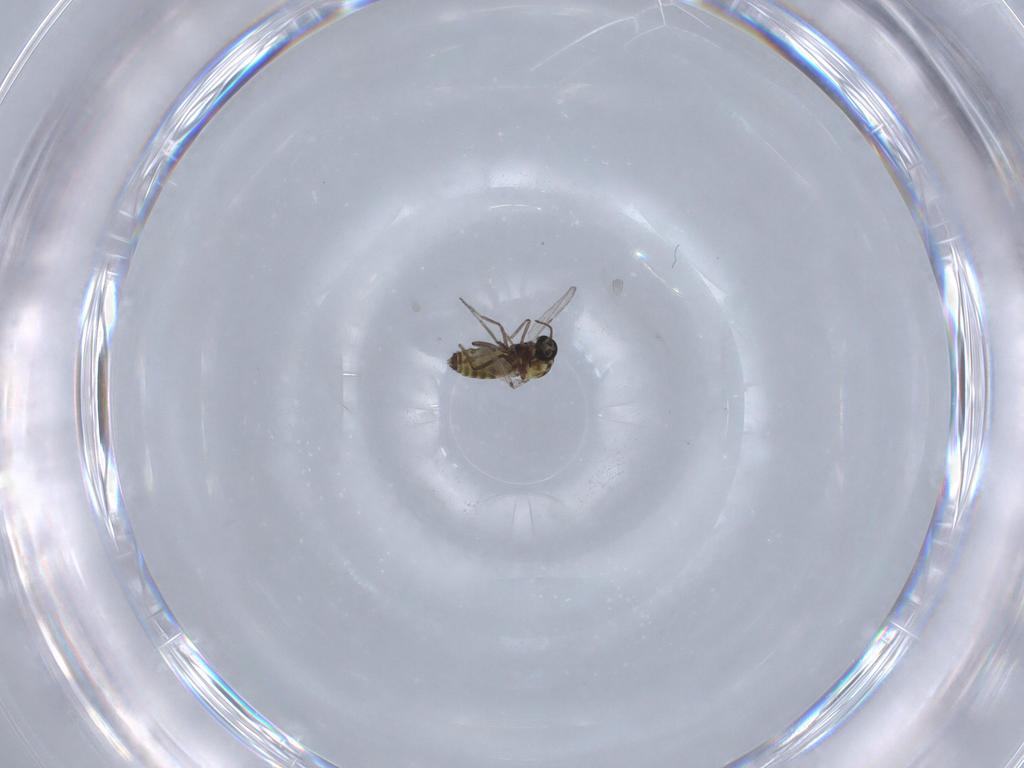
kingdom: Animalia
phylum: Arthropoda
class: Insecta
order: Diptera
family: Ceratopogonidae
